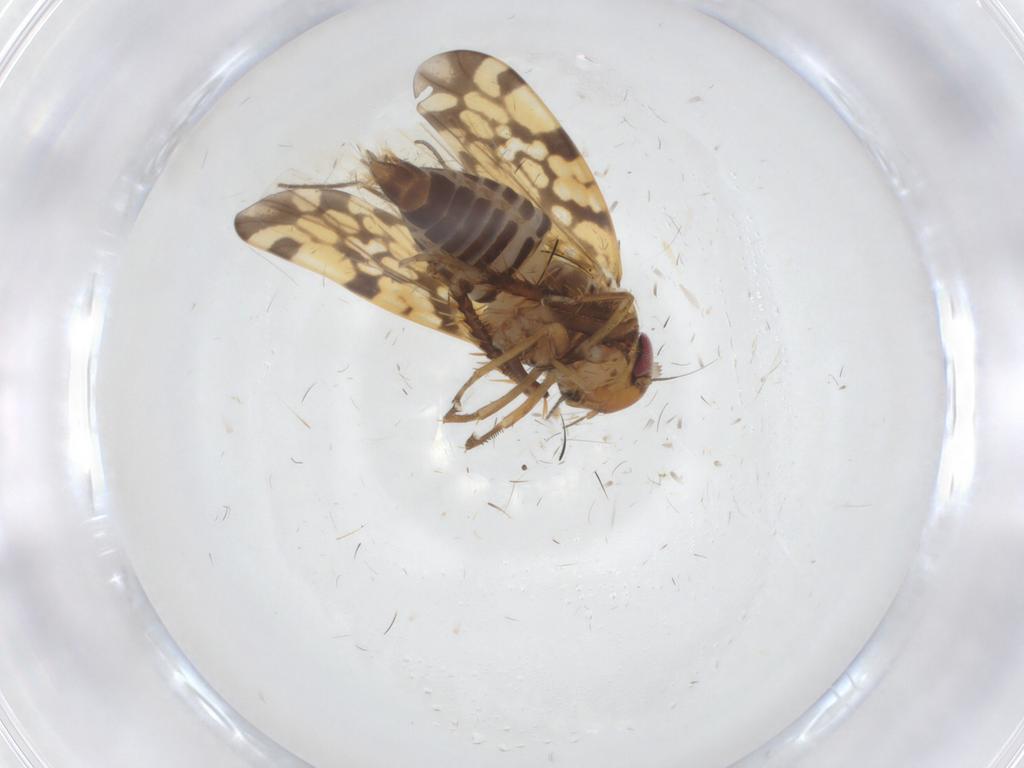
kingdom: Animalia
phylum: Arthropoda
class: Insecta
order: Hemiptera
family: Cicadellidae
